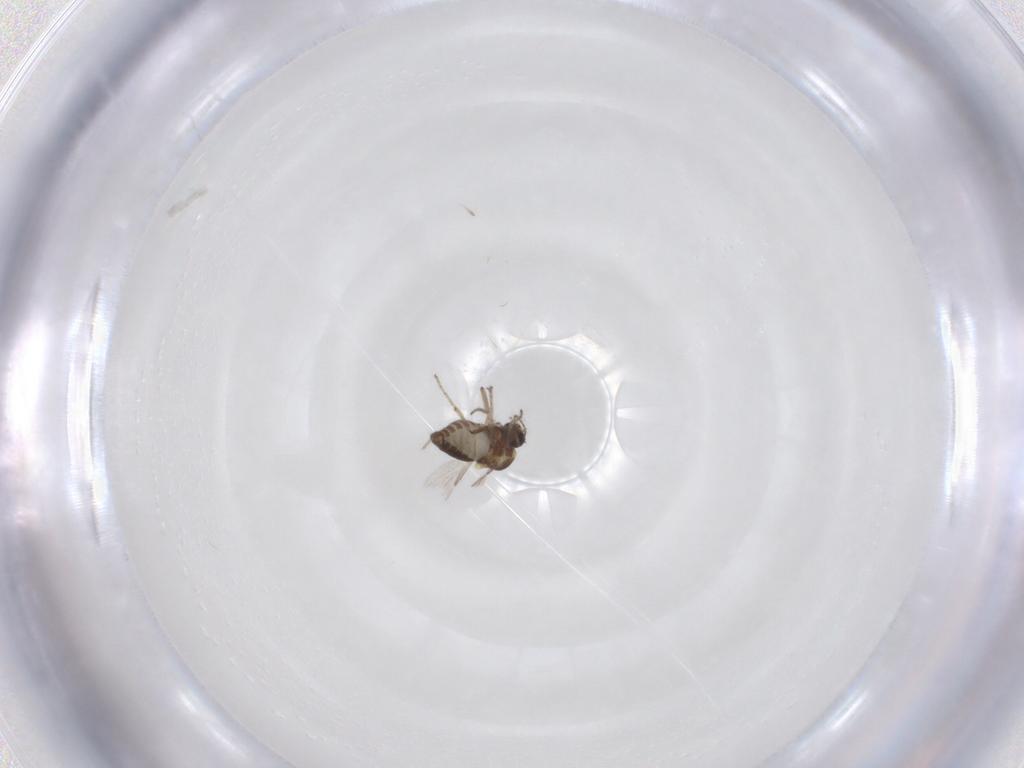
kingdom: Animalia
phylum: Arthropoda
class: Insecta
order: Diptera
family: Ceratopogonidae
